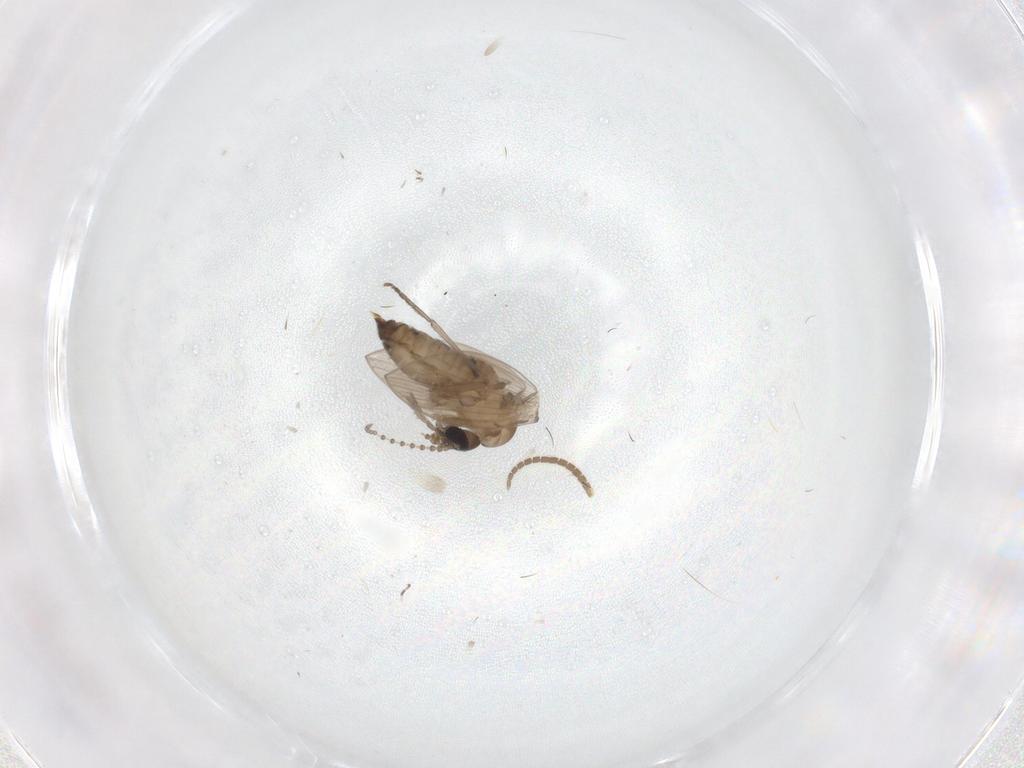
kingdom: Animalia
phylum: Arthropoda
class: Insecta
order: Diptera
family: Psychodidae
